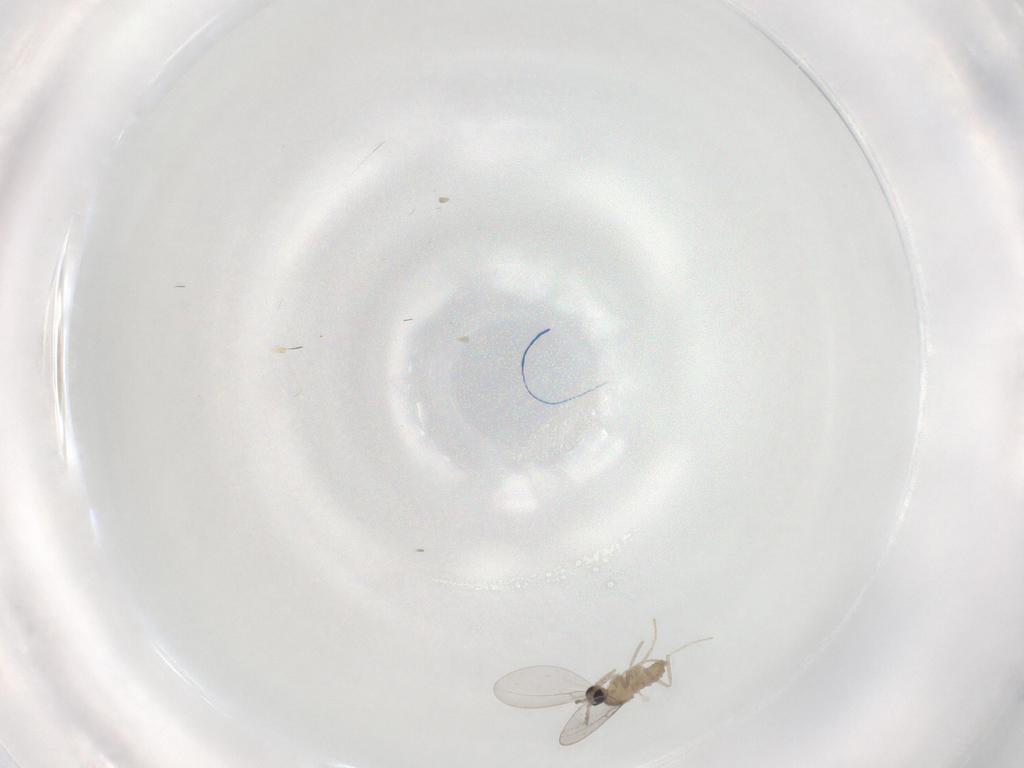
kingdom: Animalia
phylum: Arthropoda
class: Insecta
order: Diptera
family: Cecidomyiidae
